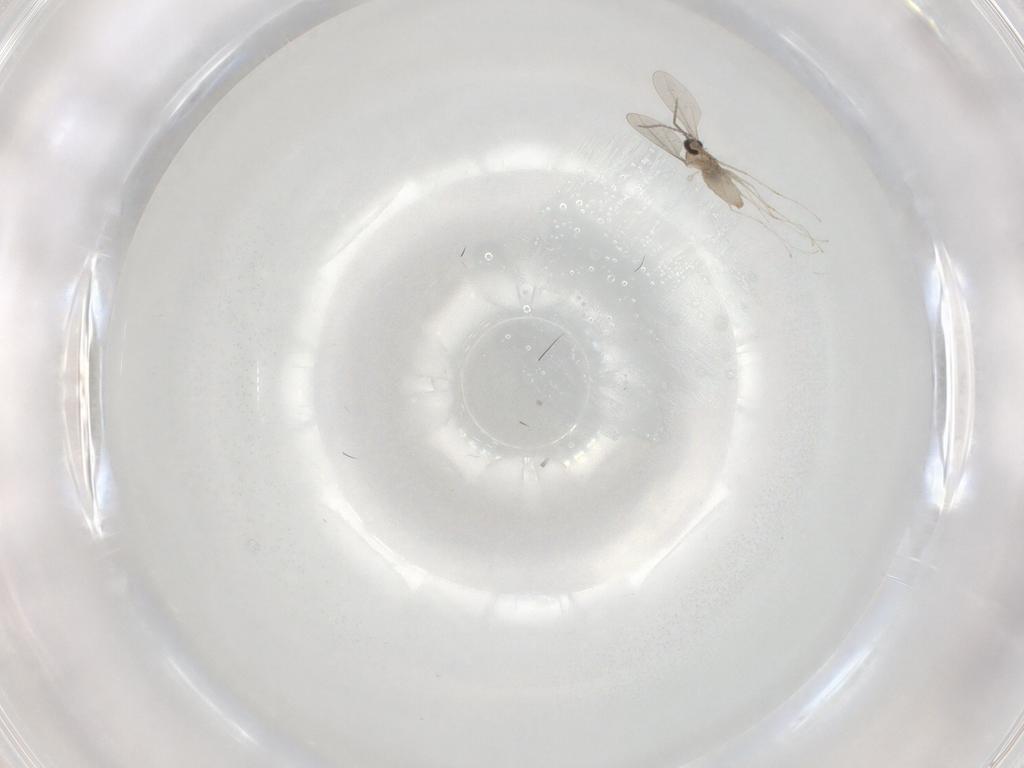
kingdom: Animalia
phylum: Arthropoda
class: Insecta
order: Diptera
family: Cecidomyiidae
